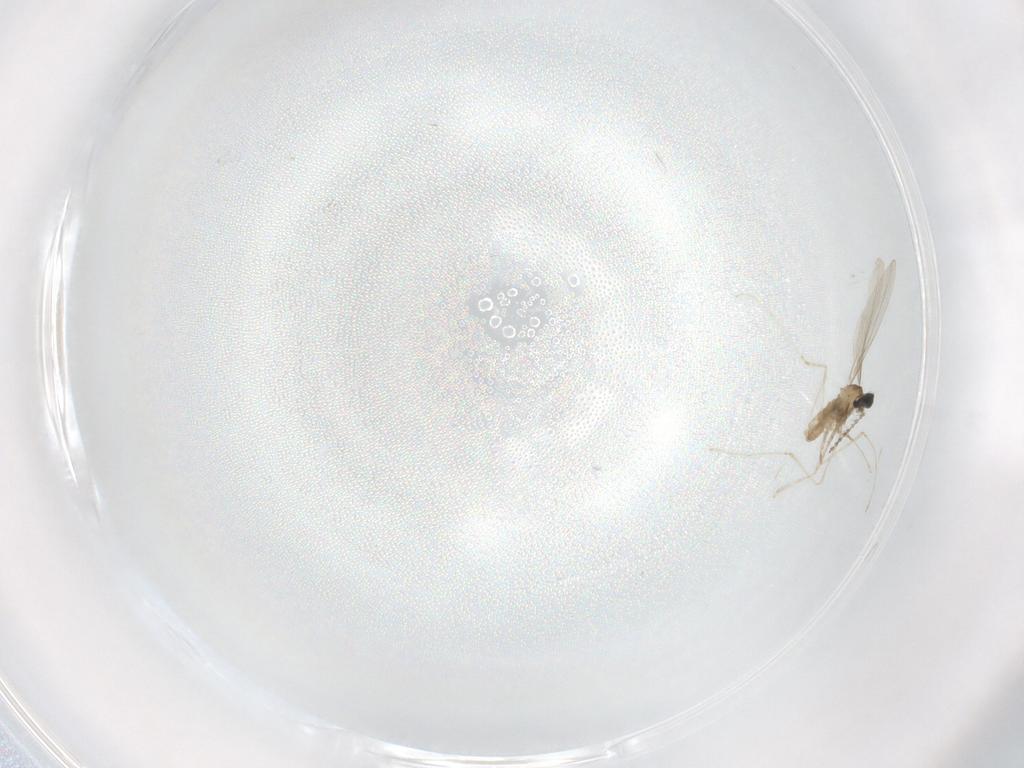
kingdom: Animalia
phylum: Arthropoda
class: Insecta
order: Diptera
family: Cecidomyiidae
